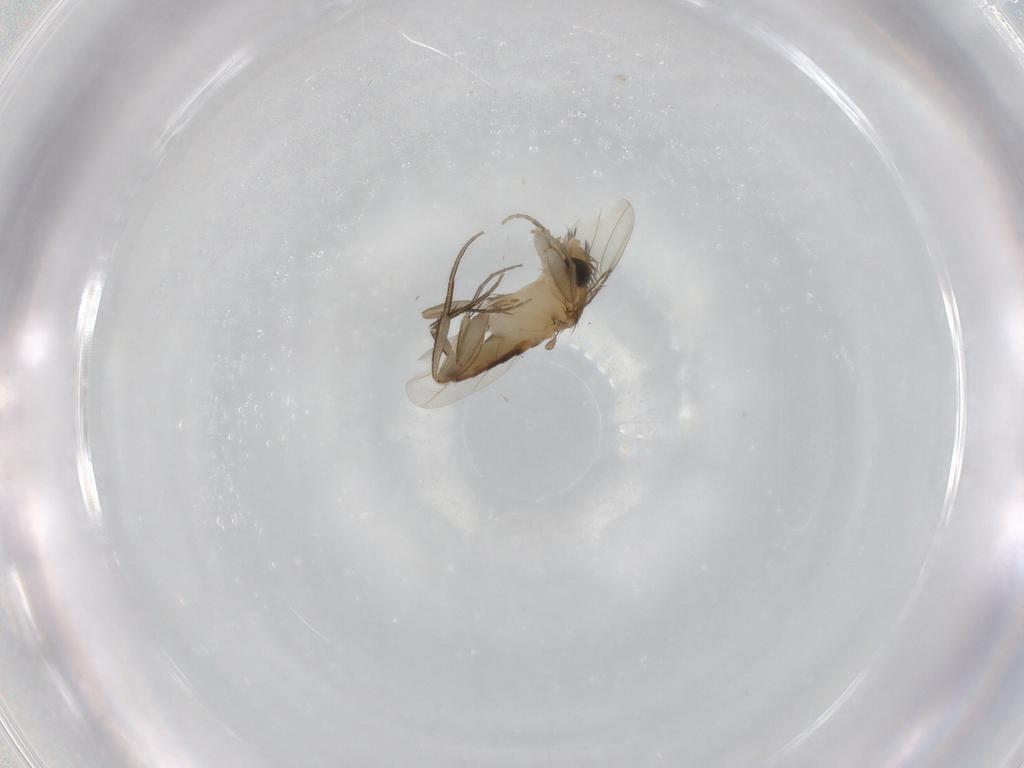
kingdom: Animalia
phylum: Arthropoda
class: Insecta
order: Diptera
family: Phoridae
